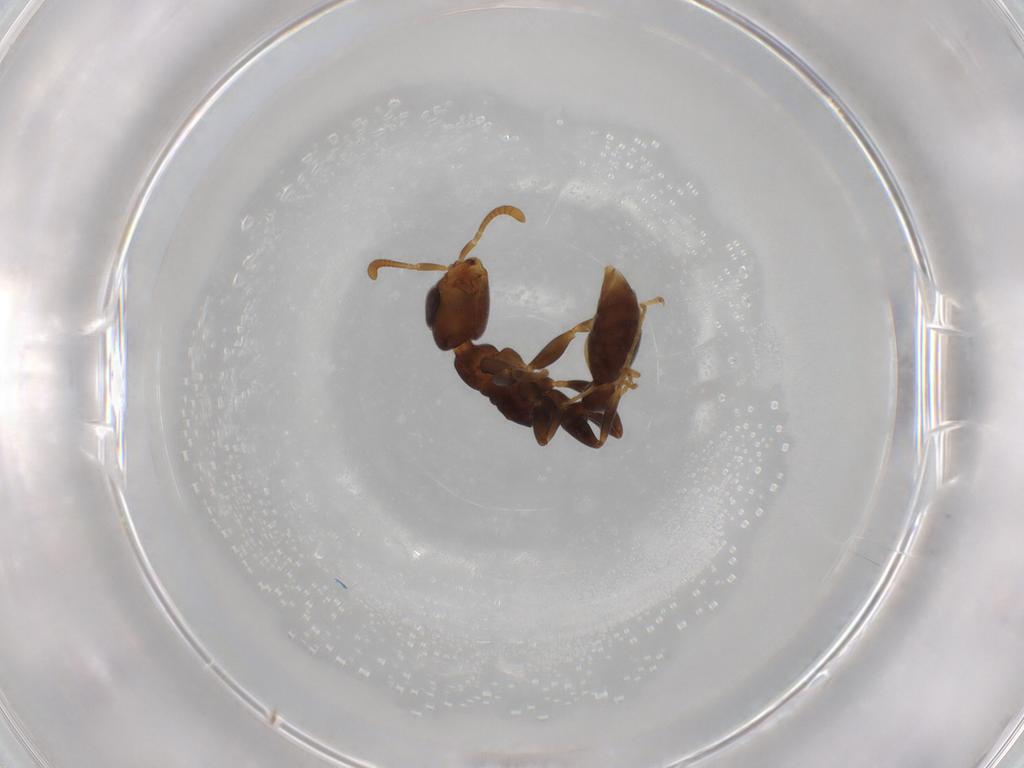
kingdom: Animalia
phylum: Arthropoda
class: Insecta
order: Hymenoptera
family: Formicidae
